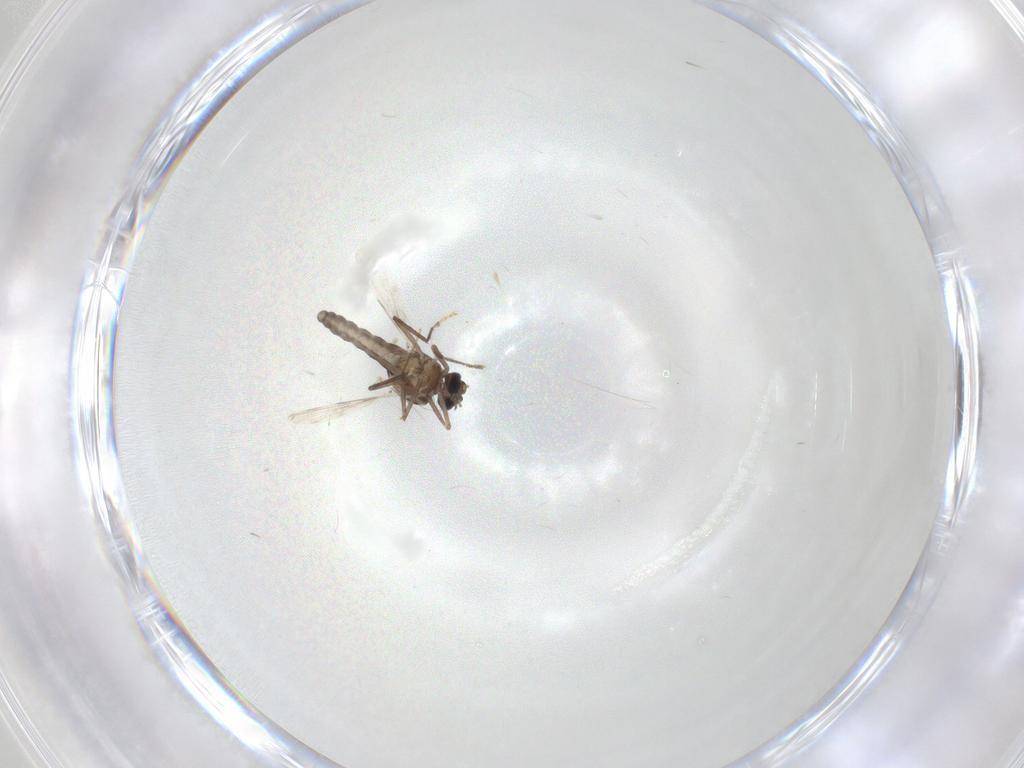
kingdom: Animalia
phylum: Arthropoda
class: Insecta
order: Diptera
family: Ceratopogonidae
